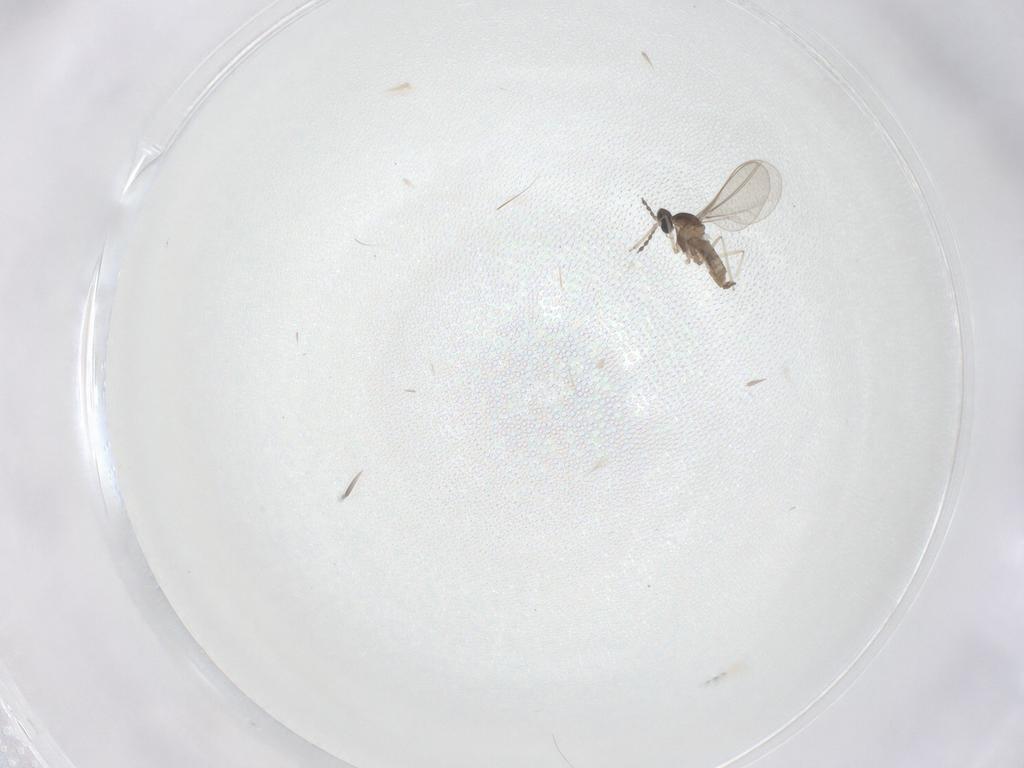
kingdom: Animalia
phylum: Arthropoda
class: Insecta
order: Diptera
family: Cecidomyiidae
